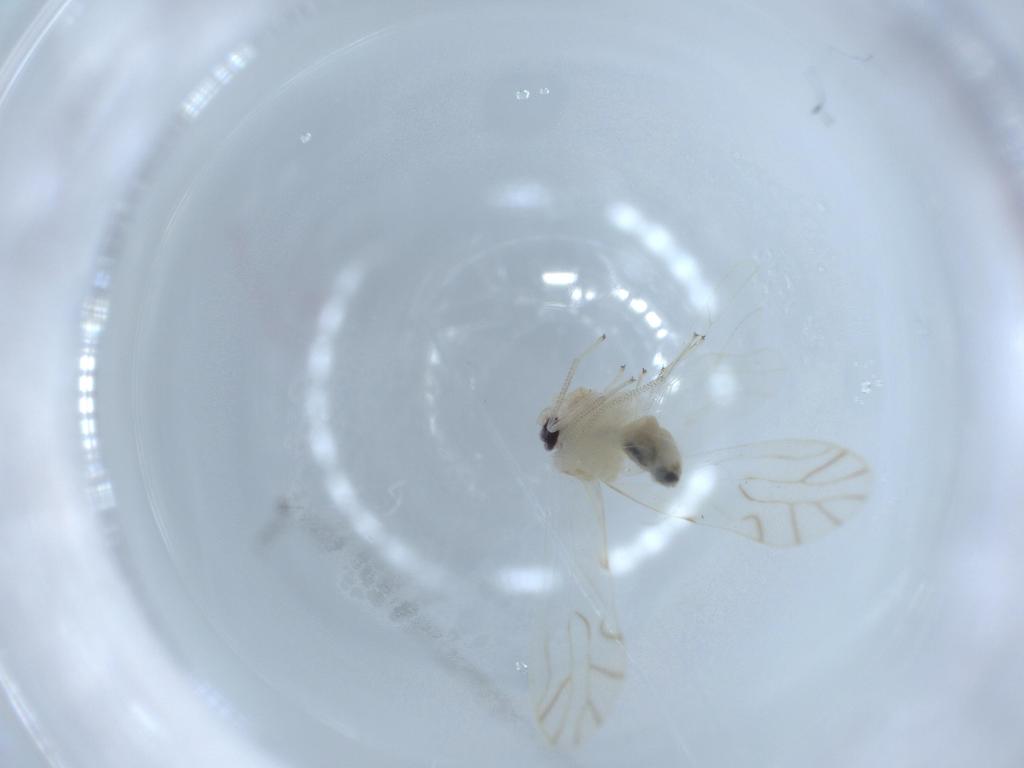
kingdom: Animalia
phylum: Arthropoda
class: Insecta
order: Psocodea
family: Caeciliusidae
